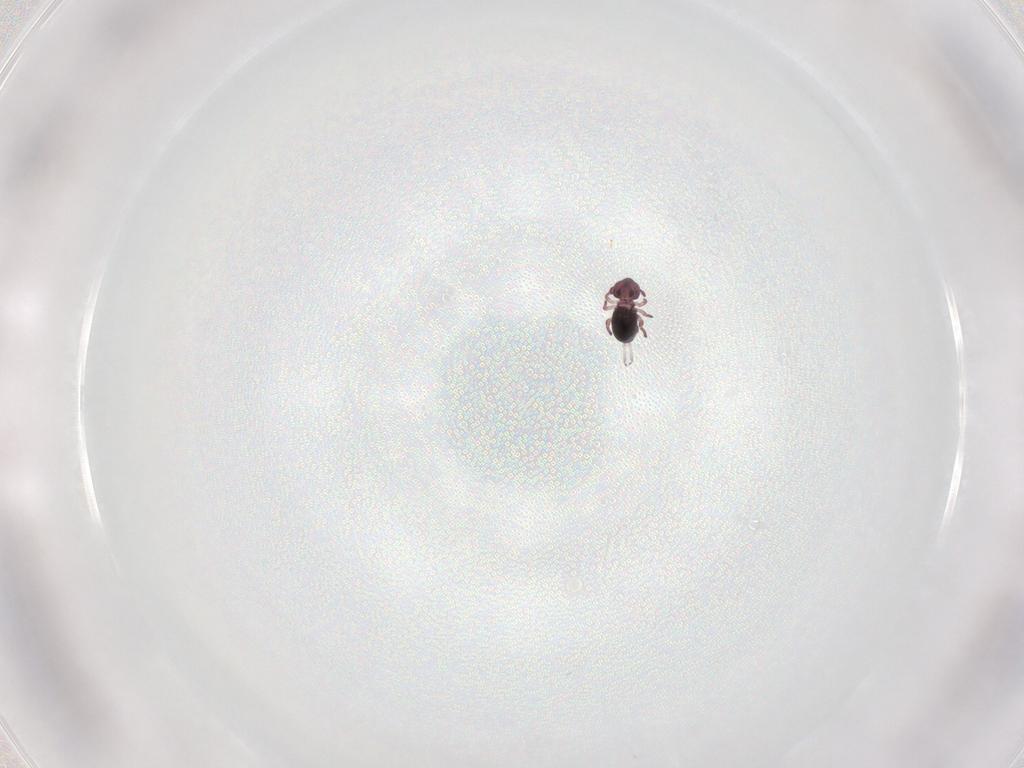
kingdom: Animalia
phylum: Arthropoda
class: Collembola
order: Symphypleona
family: Sminthurididae
